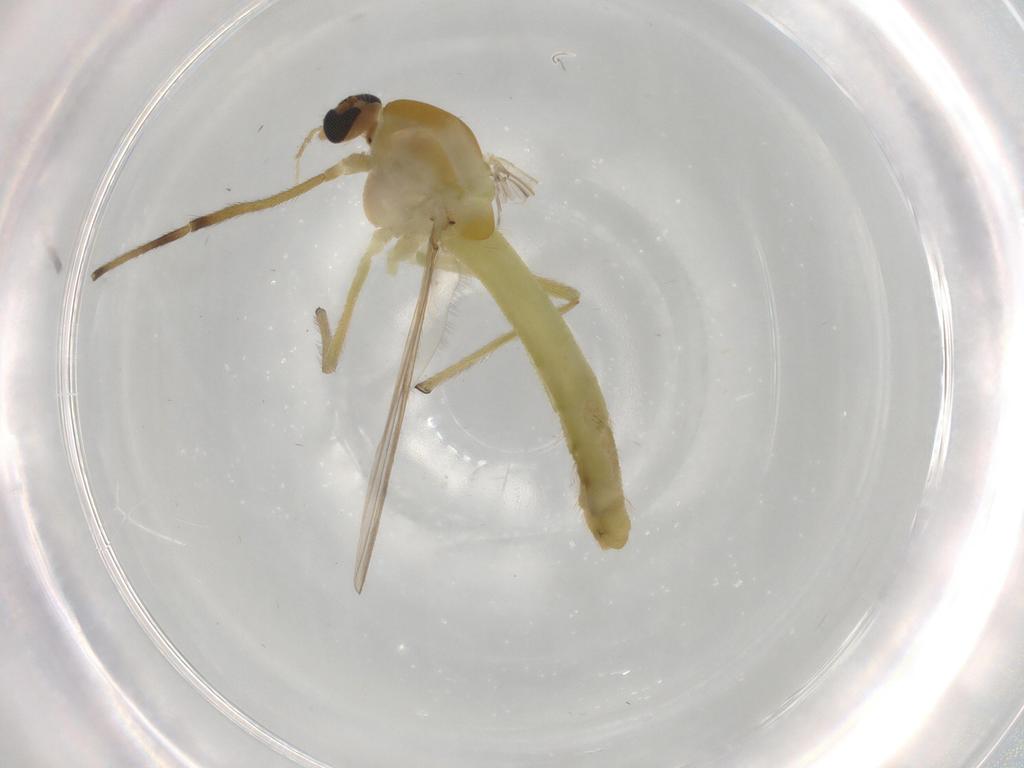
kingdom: Animalia
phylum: Arthropoda
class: Insecta
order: Diptera
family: Sciaridae
